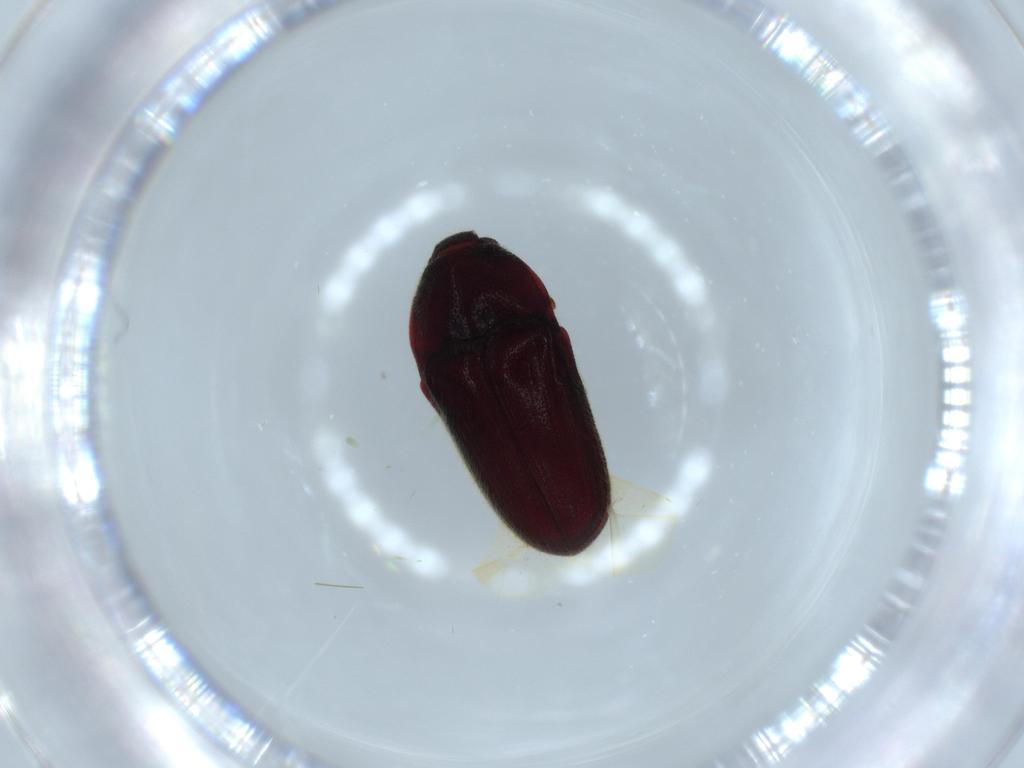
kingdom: Animalia
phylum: Arthropoda
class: Insecta
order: Coleoptera
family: Throscidae
